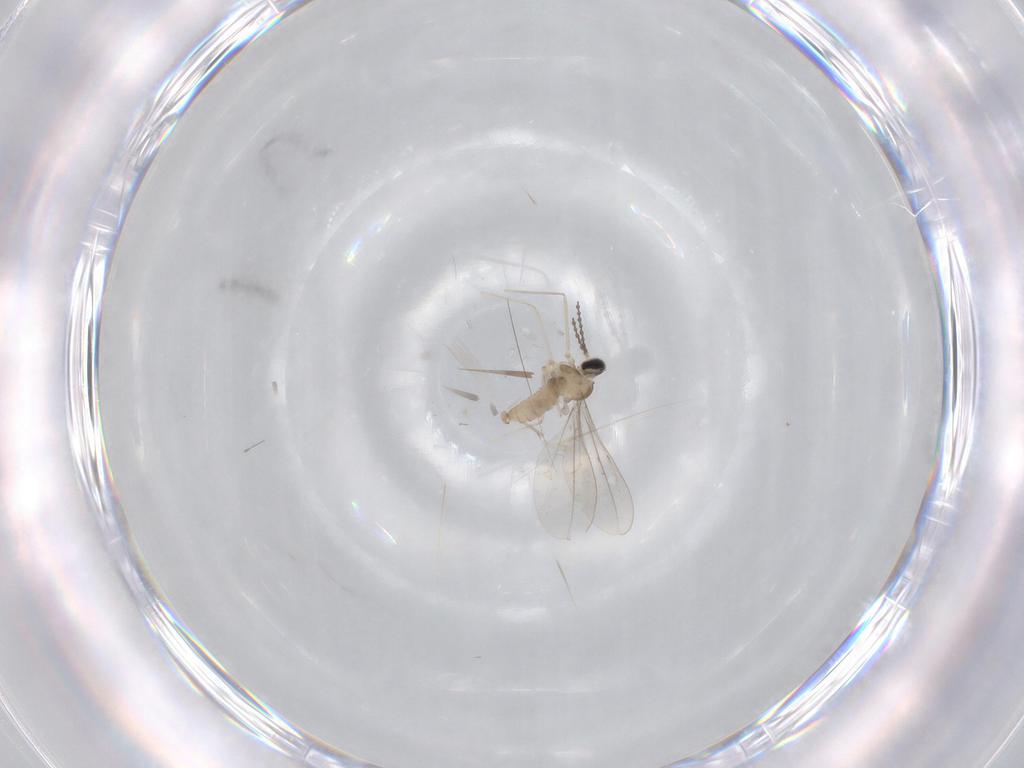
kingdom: Animalia
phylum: Arthropoda
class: Insecta
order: Diptera
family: Cecidomyiidae
